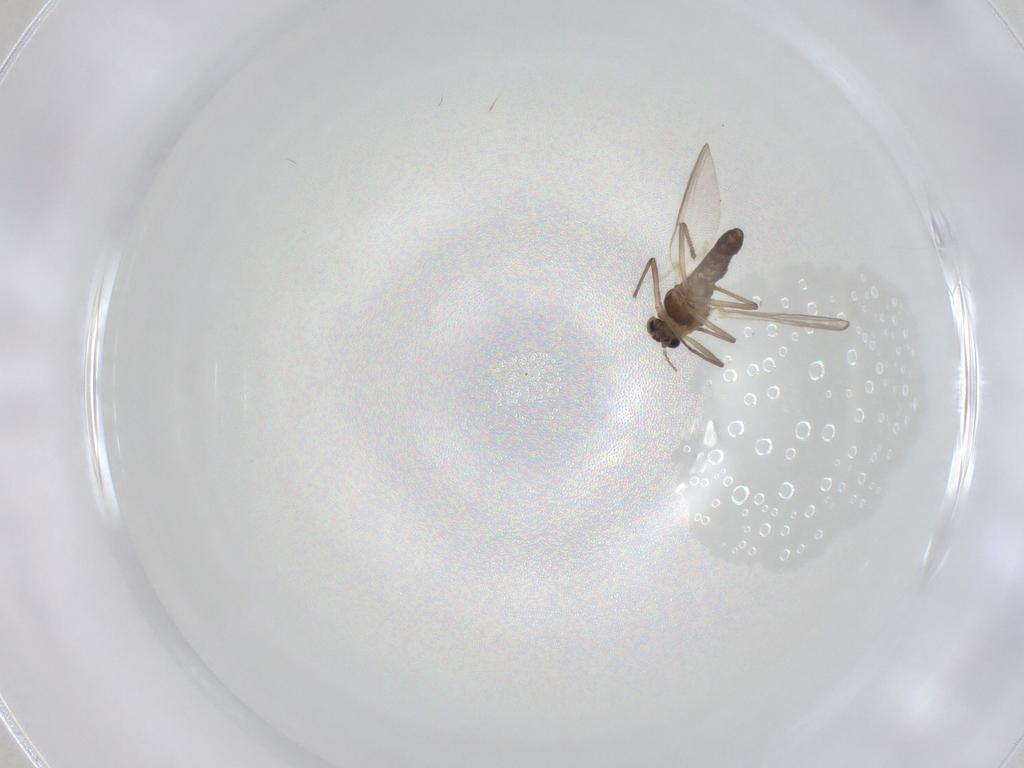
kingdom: Animalia
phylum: Arthropoda
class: Insecta
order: Diptera
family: Chironomidae
